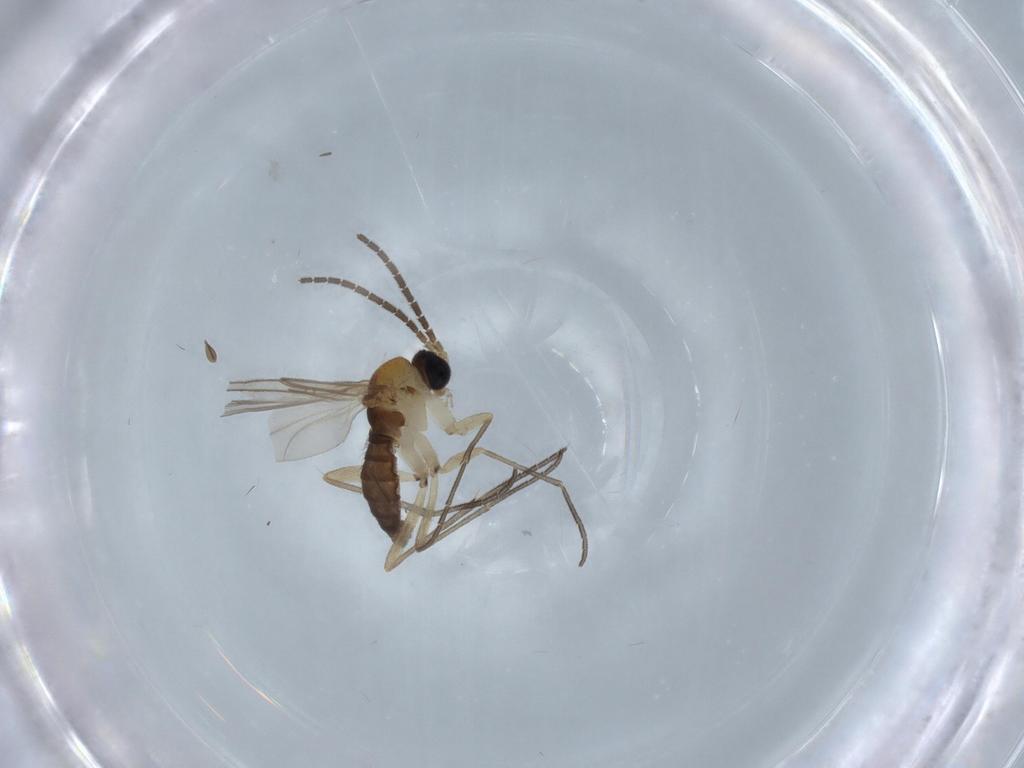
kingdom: Animalia
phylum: Arthropoda
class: Insecta
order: Diptera
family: Sciaridae
